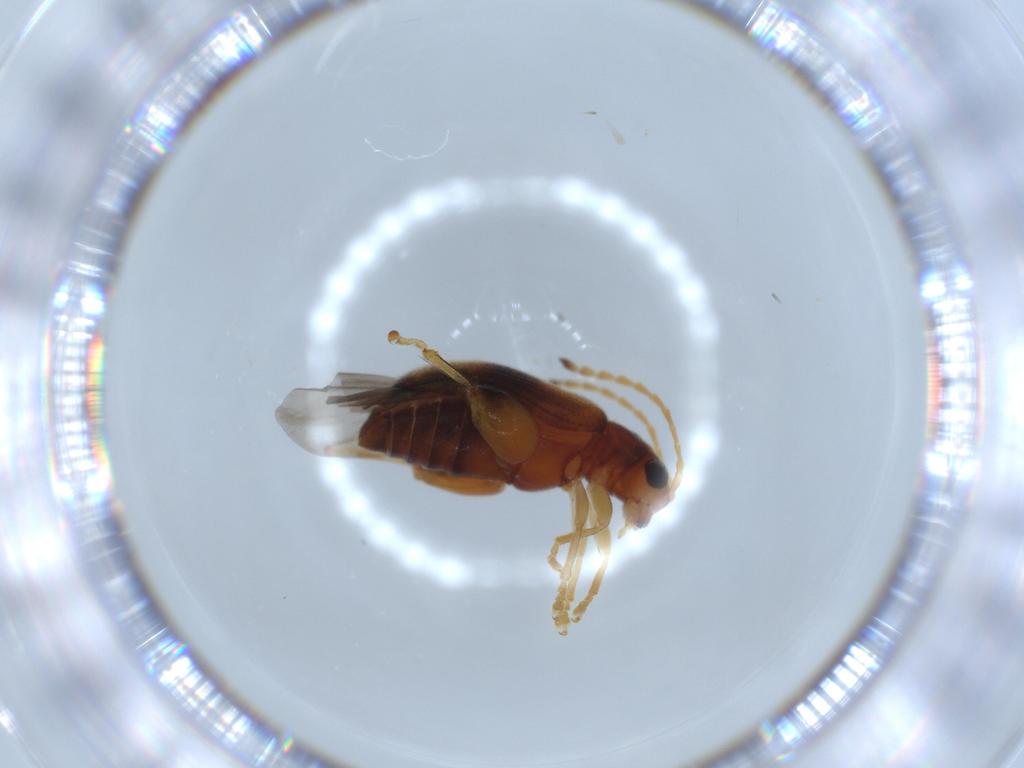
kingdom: Animalia
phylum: Arthropoda
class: Insecta
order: Coleoptera
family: Chrysomelidae
